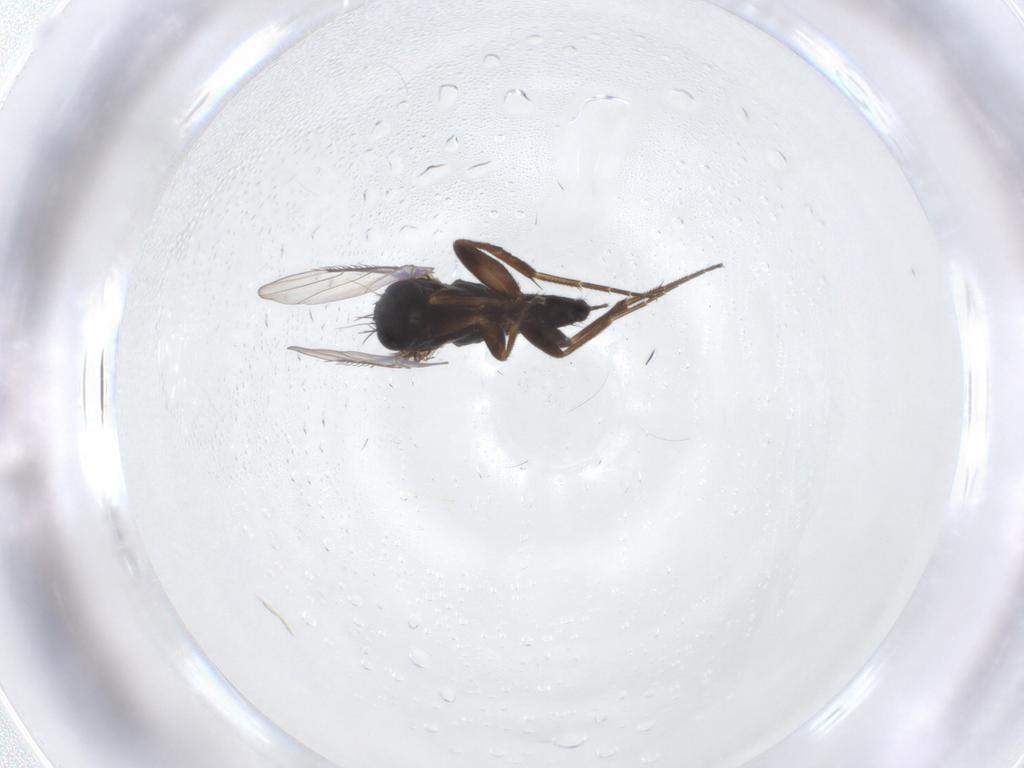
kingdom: Animalia
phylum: Arthropoda
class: Insecta
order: Diptera
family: Phoridae
